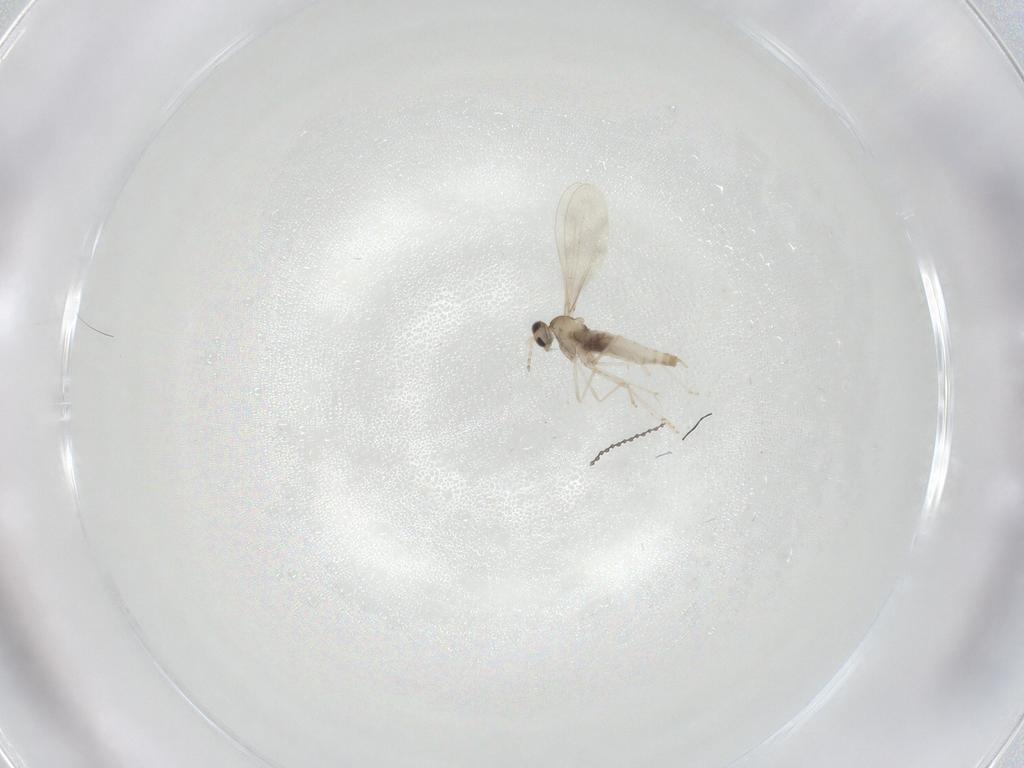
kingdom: Animalia
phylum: Arthropoda
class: Insecta
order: Diptera
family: Cecidomyiidae
